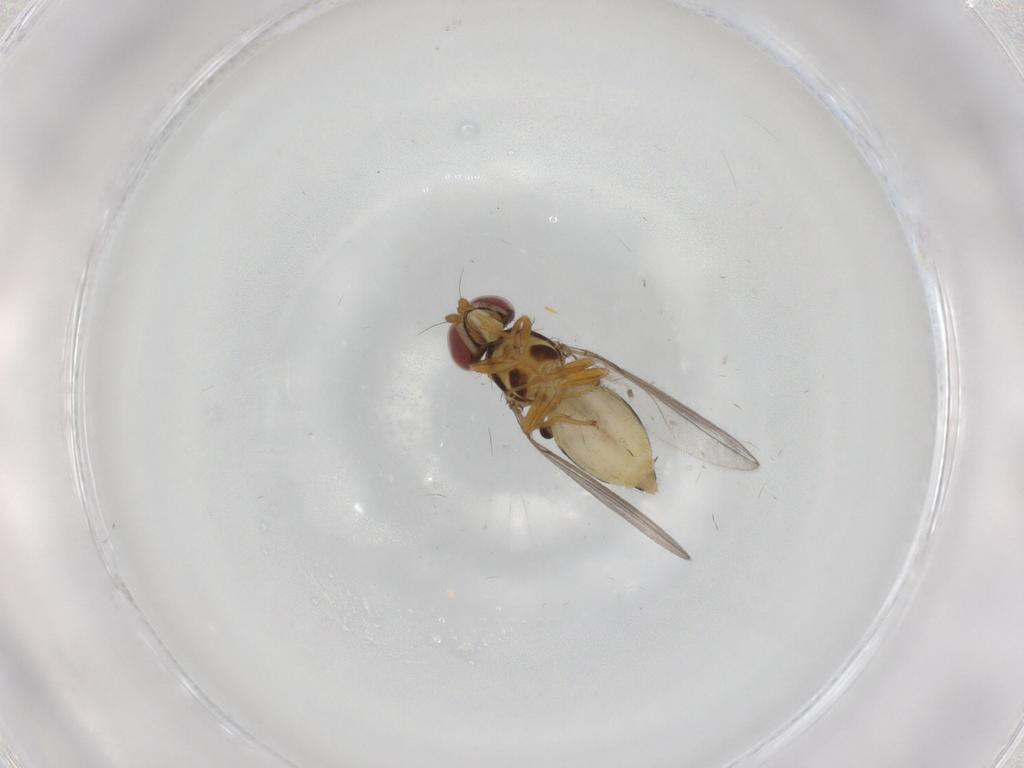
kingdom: Animalia
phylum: Arthropoda
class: Insecta
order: Diptera
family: Asteiidae
